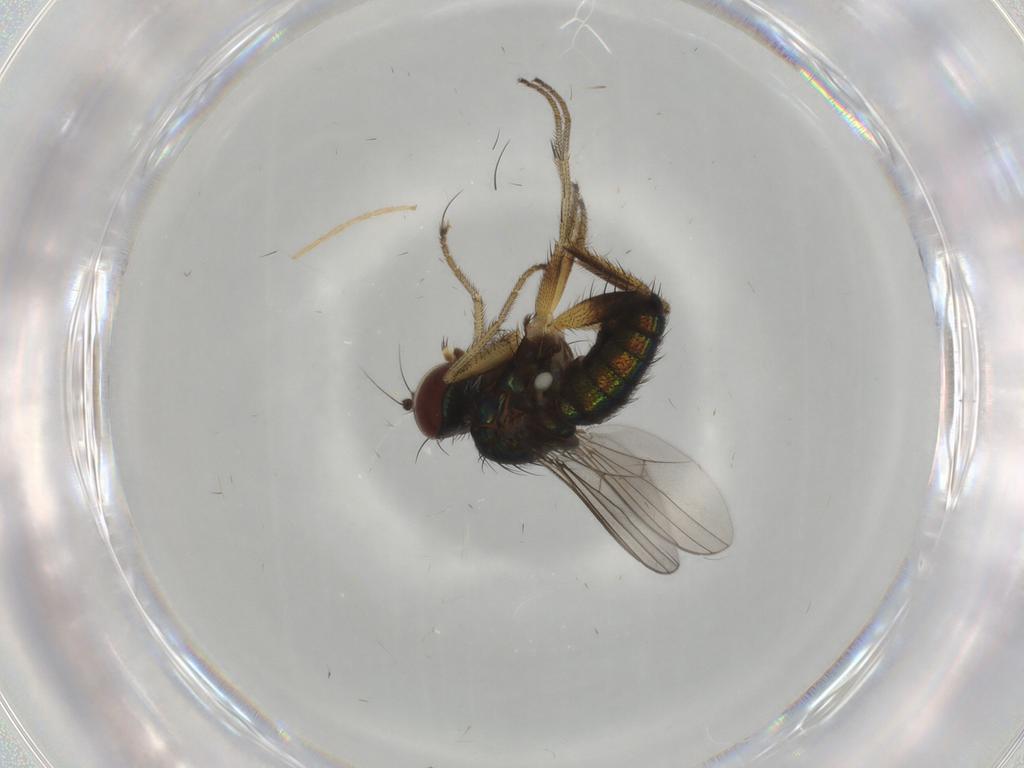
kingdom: Animalia
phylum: Arthropoda
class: Insecta
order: Diptera
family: Dolichopodidae
